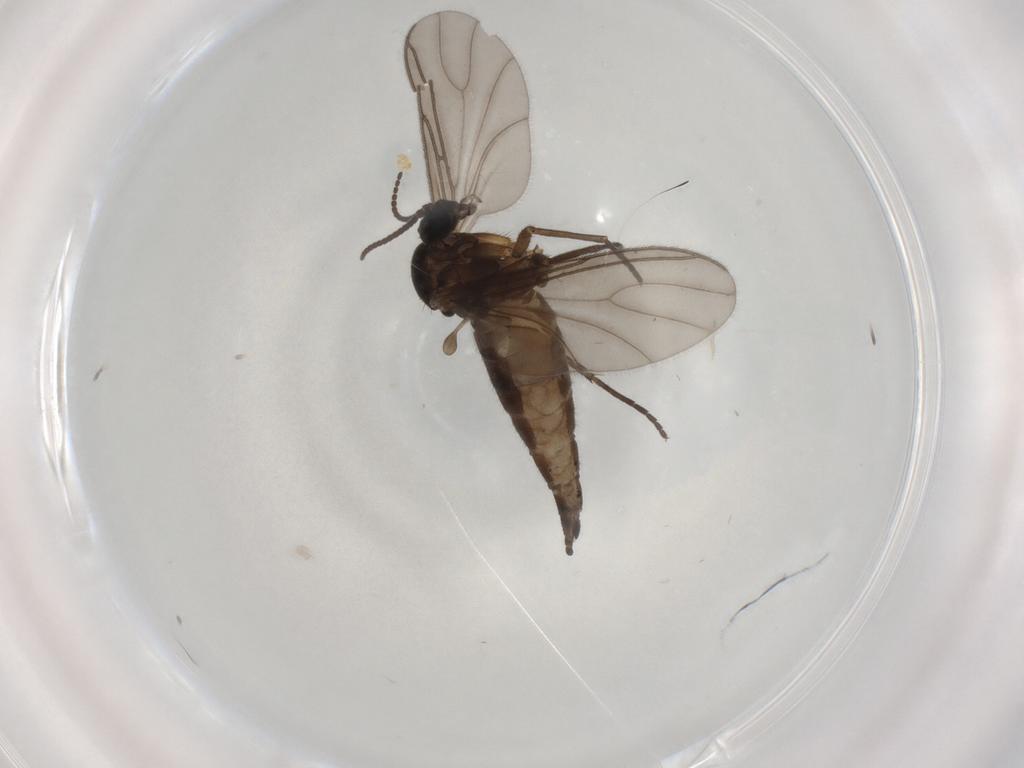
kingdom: Animalia
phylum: Arthropoda
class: Insecta
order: Diptera
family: Sciaridae
